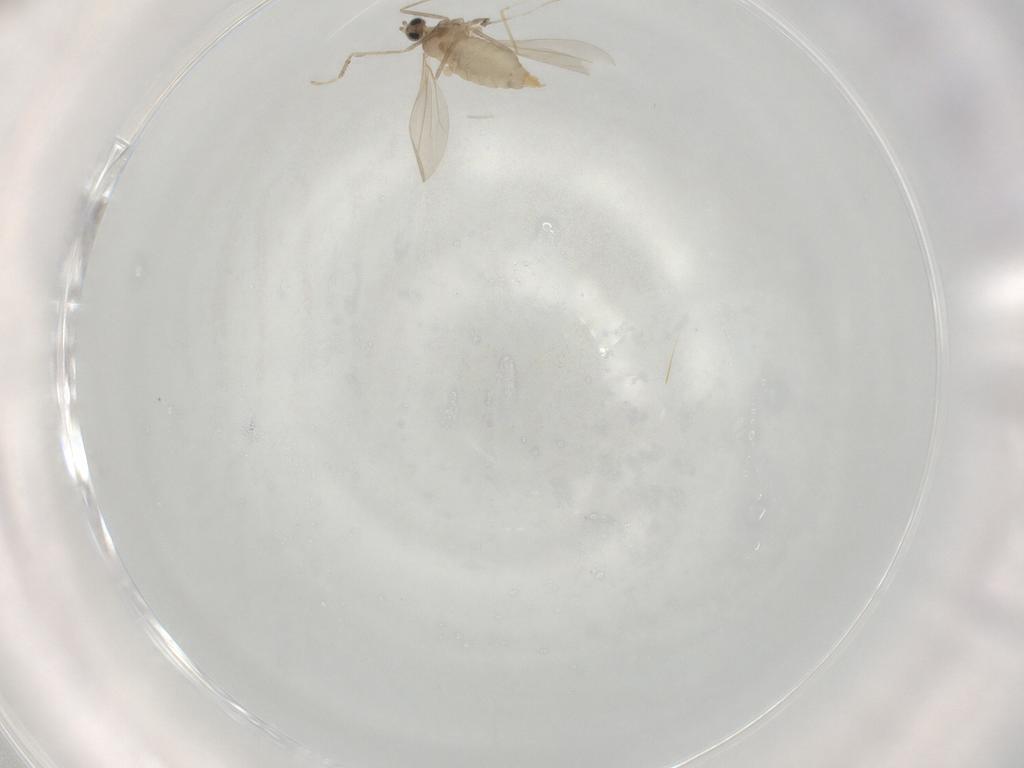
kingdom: Animalia
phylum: Arthropoda
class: Insecta
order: Diptera
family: Cecidomyiidae
